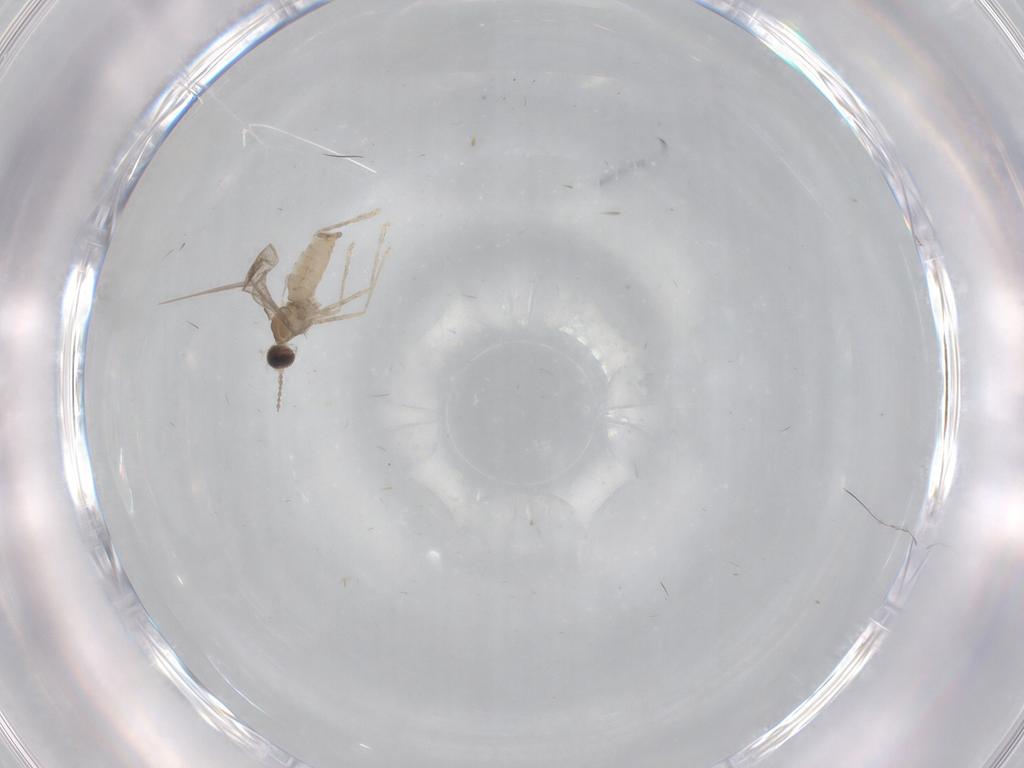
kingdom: Animalia
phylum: Arthropoda
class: Insecta
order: Diptera
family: Cecidomyiidae
